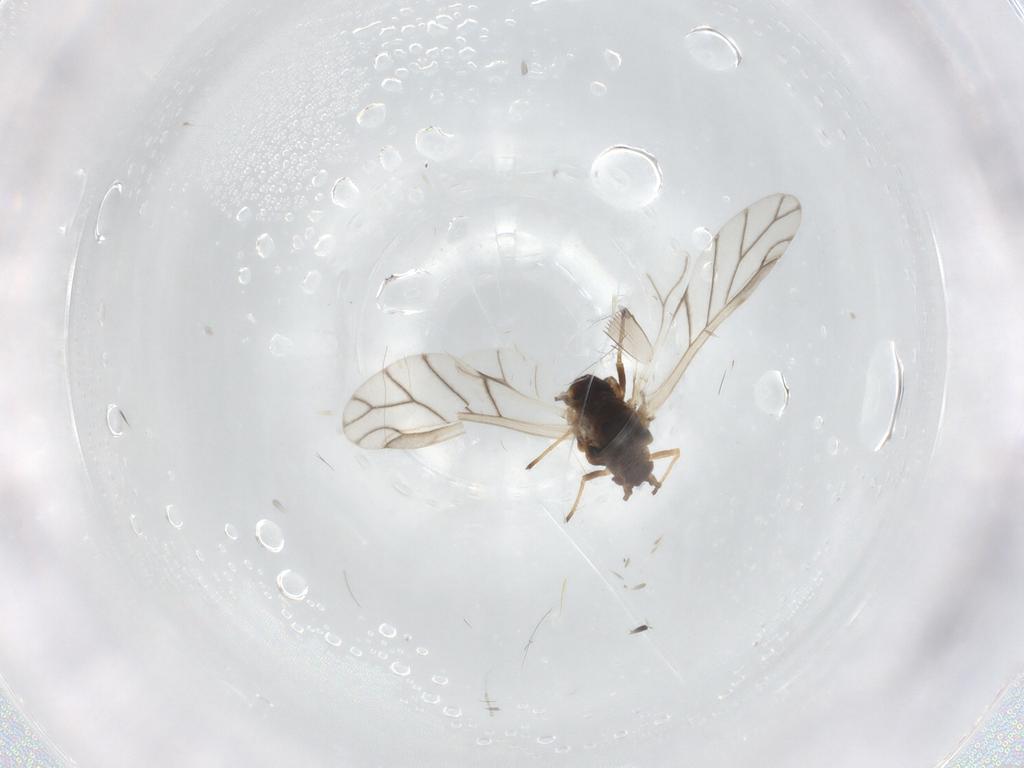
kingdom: Animalia
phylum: Arthropoda
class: Insecta
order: Hemiptera
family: Aphididae
